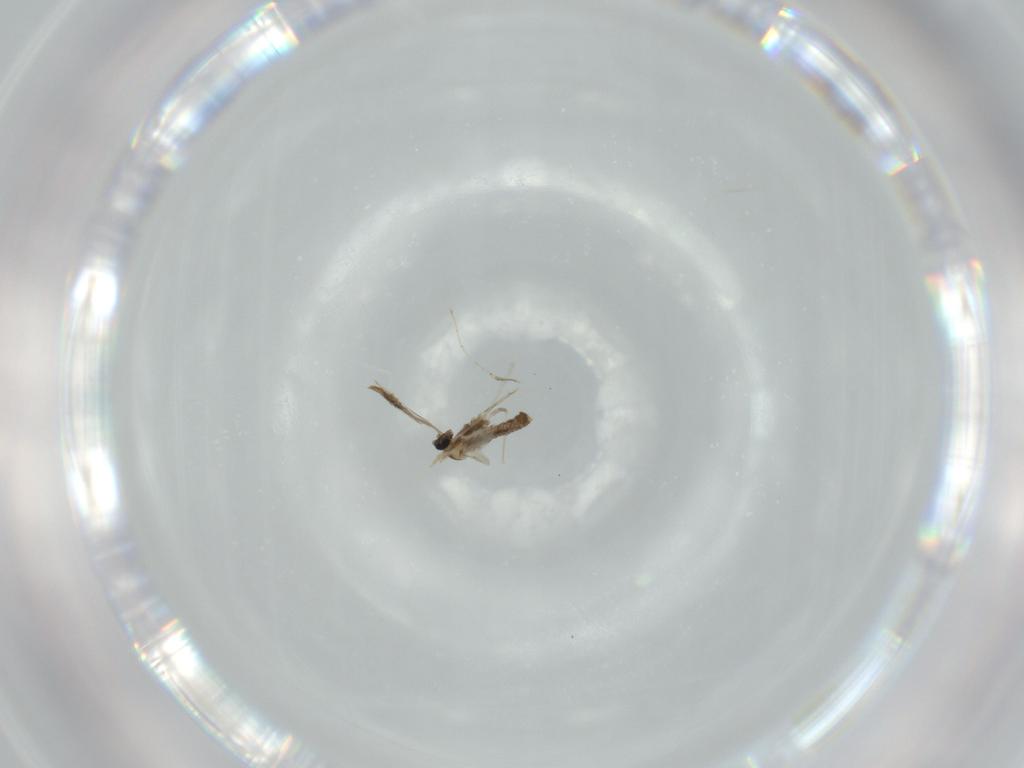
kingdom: Animalia
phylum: Arthropoda
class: Insecta
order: Diptera
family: Cecidomyiidae
